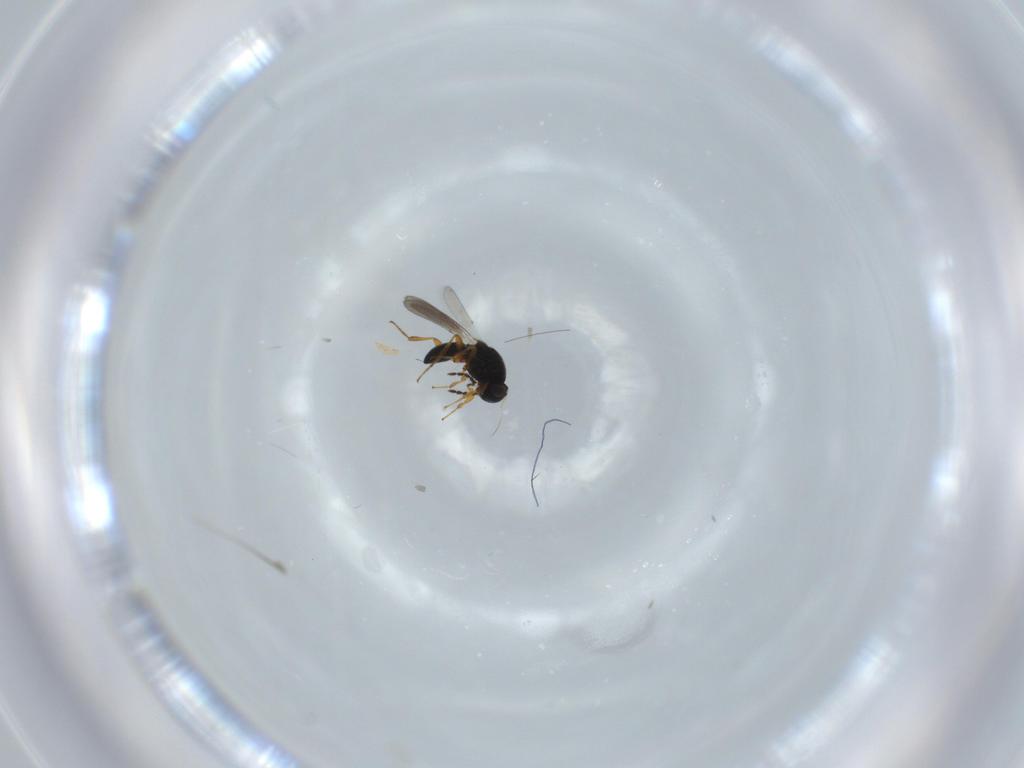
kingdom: Animalia
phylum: Arthropoda
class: Insecta
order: Hymenoptera
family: Platygastridae
